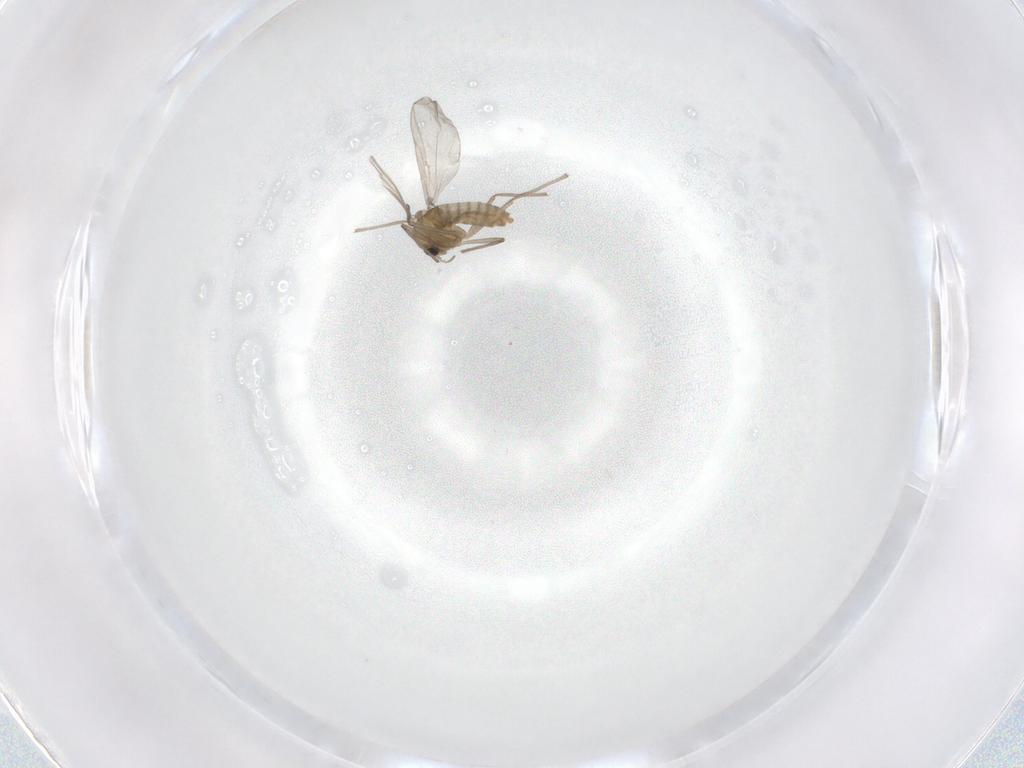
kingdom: Animalia
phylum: Arthropoda
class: Insecta
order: Diptera
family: Chironomidae
